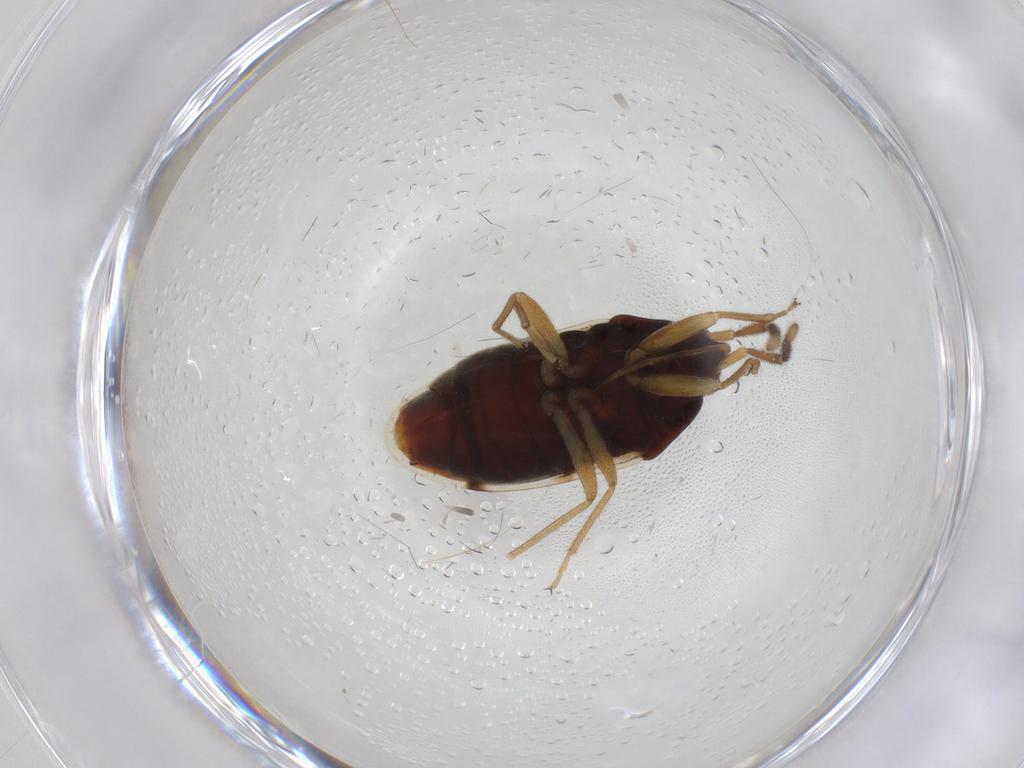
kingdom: Animalia
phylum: Arthropoda
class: Insecta
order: Hemiptera
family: Rhyparochromidae
